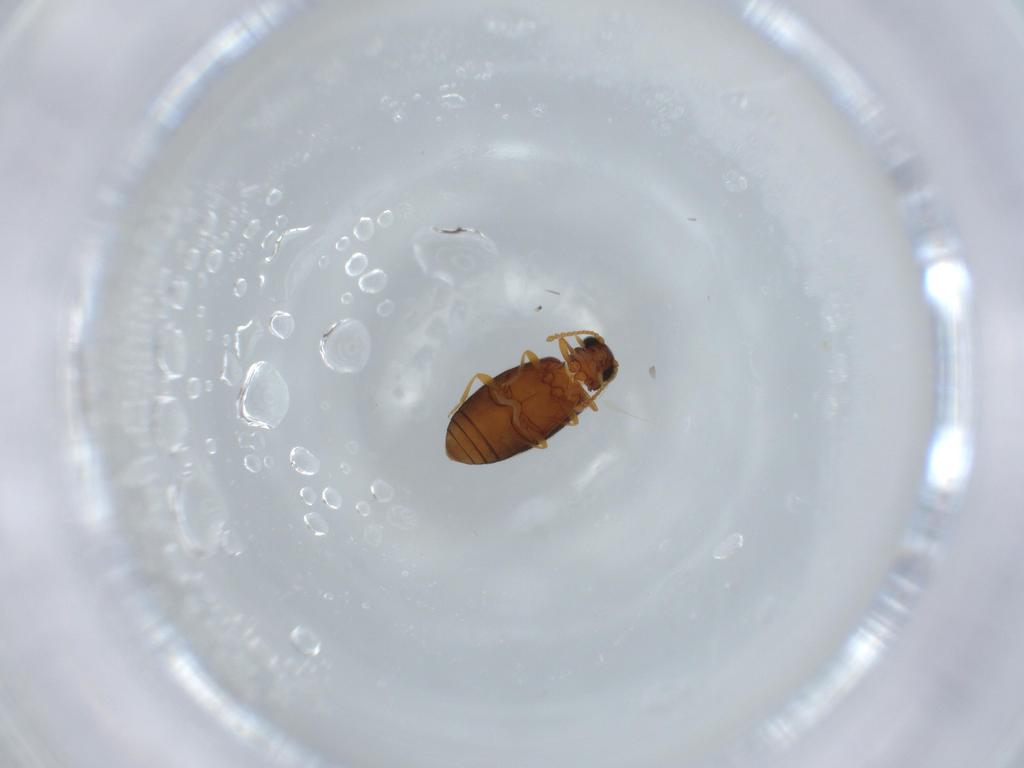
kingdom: Animalia
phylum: Arthropoda
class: Insecta
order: Coleoptera
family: Aderidae
